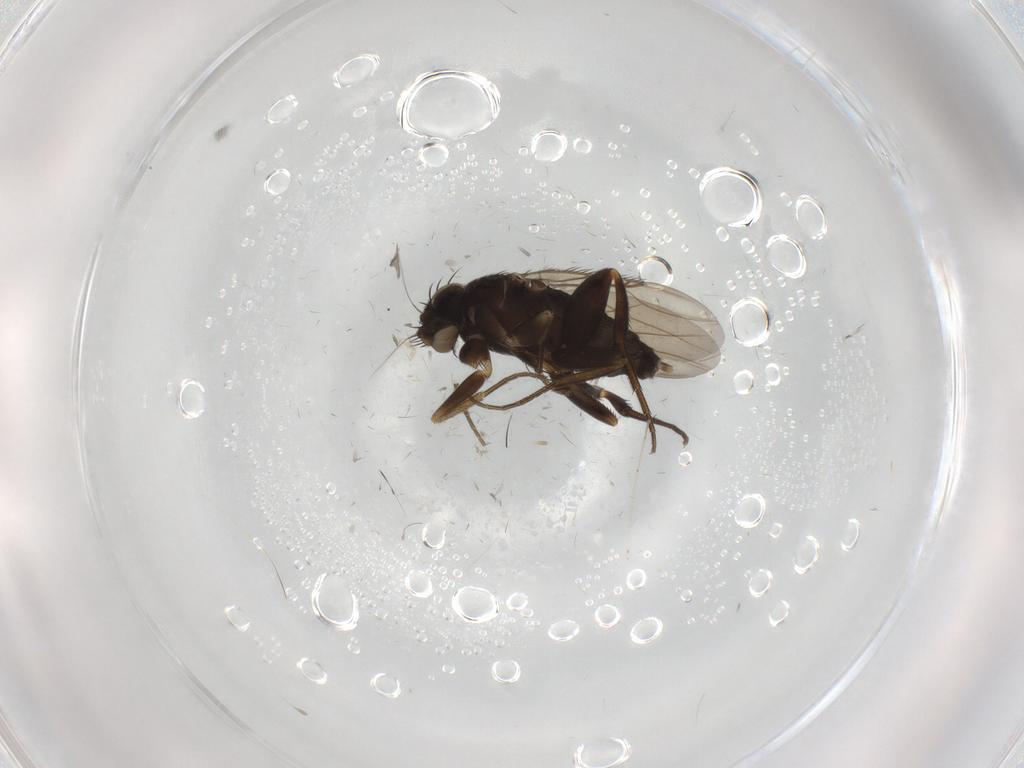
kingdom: Animalia
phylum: Arthropoda
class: Insecta
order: Diptera
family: Phoridae
